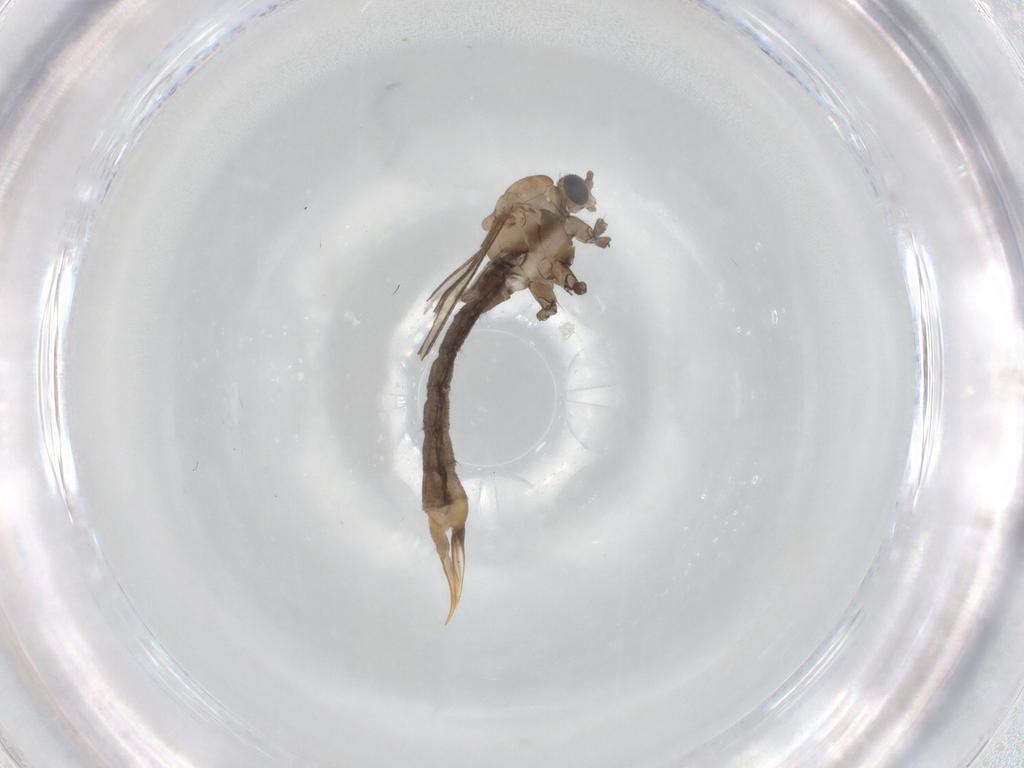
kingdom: Animalia
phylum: Arthropoda
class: Insecta
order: Diptera
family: Limoniidae
